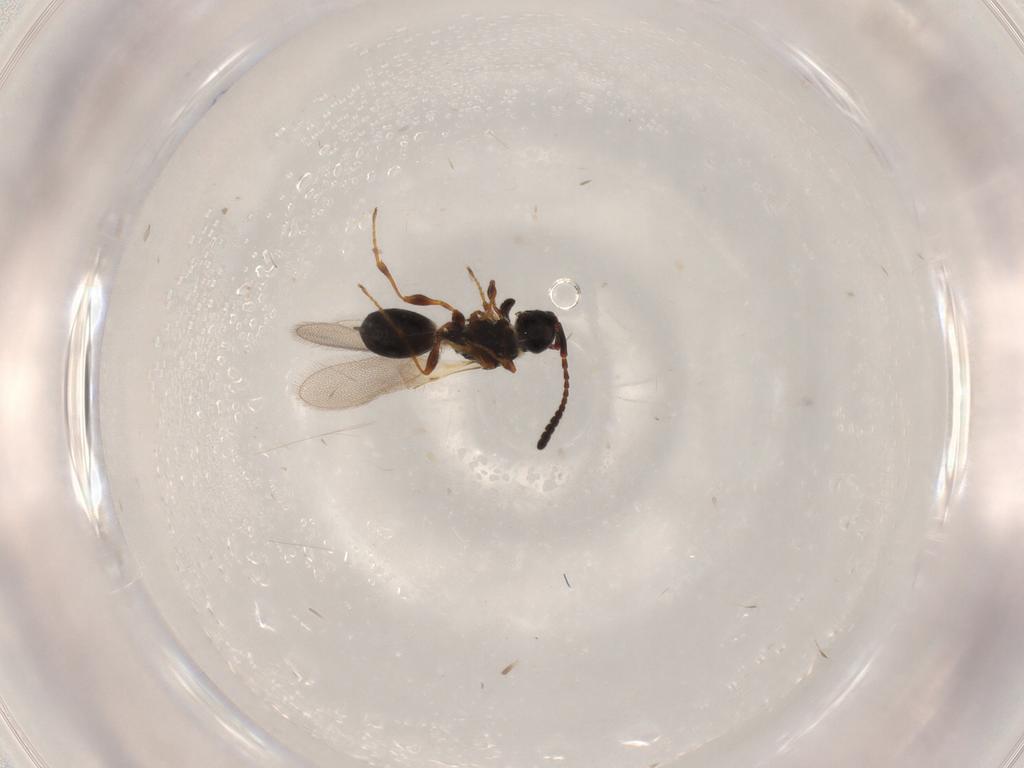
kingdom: Animalia
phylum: Arthropoda
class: Insecta
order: Hymenoptera
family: Diapriidae
